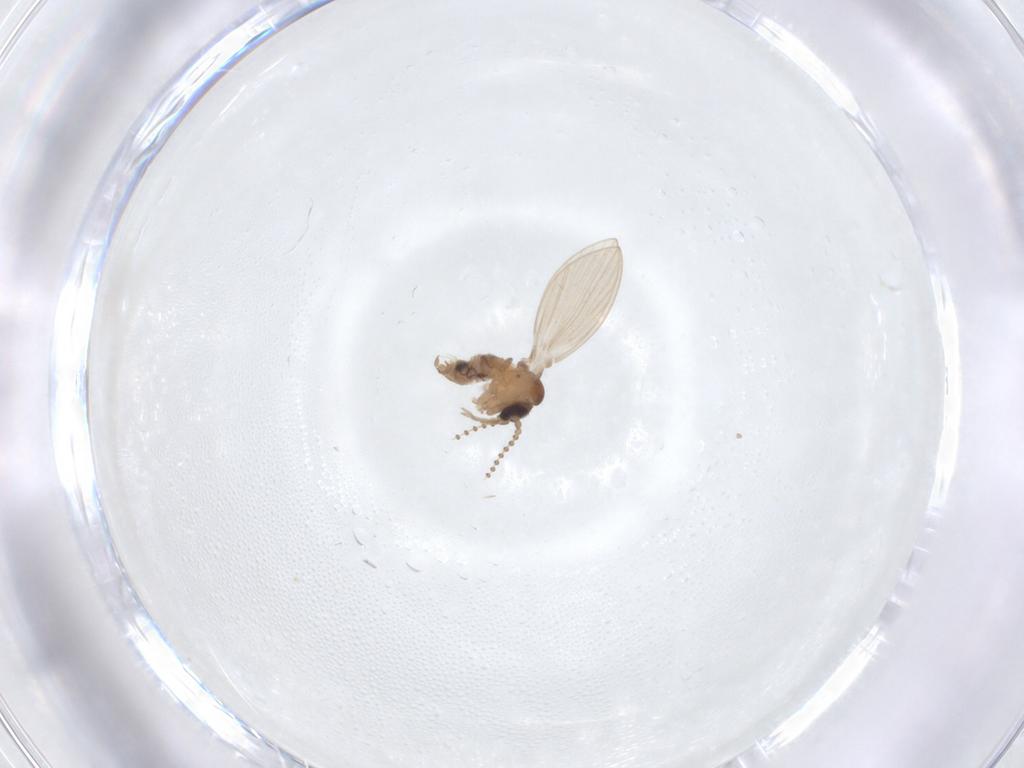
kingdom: Animalia
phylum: Arthropoda
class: Insecta
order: Diptera
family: Psychodidae
